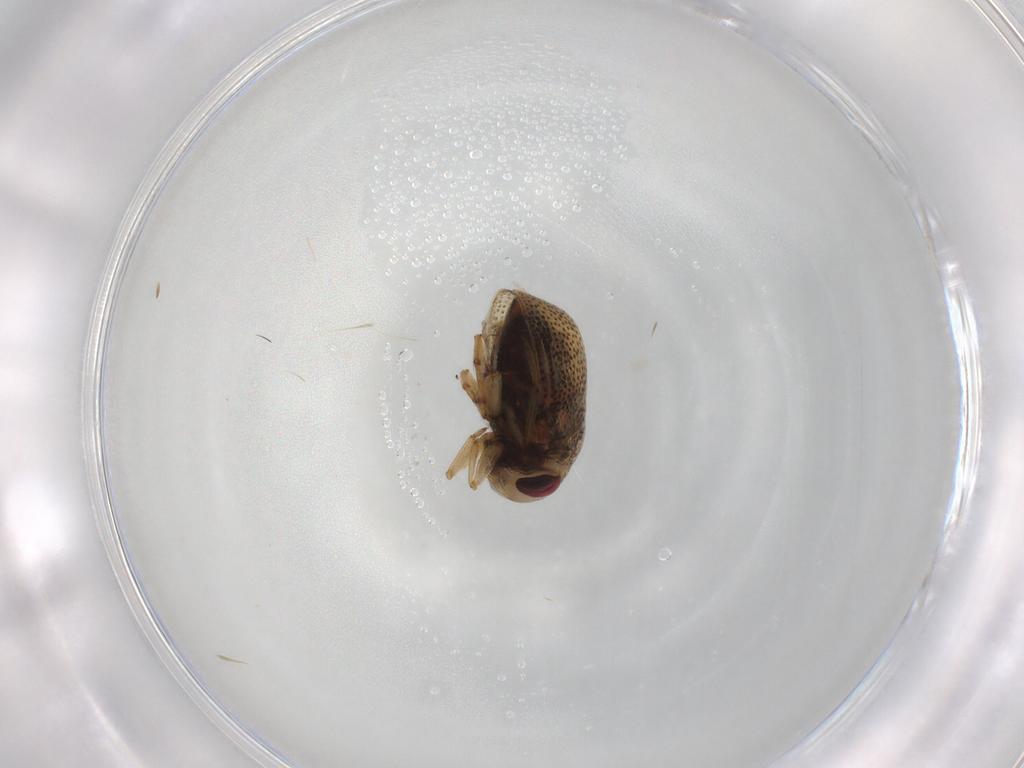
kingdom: Animalia
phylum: Arthropoda
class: Insecta
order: Hemiptera
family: Pleidae
